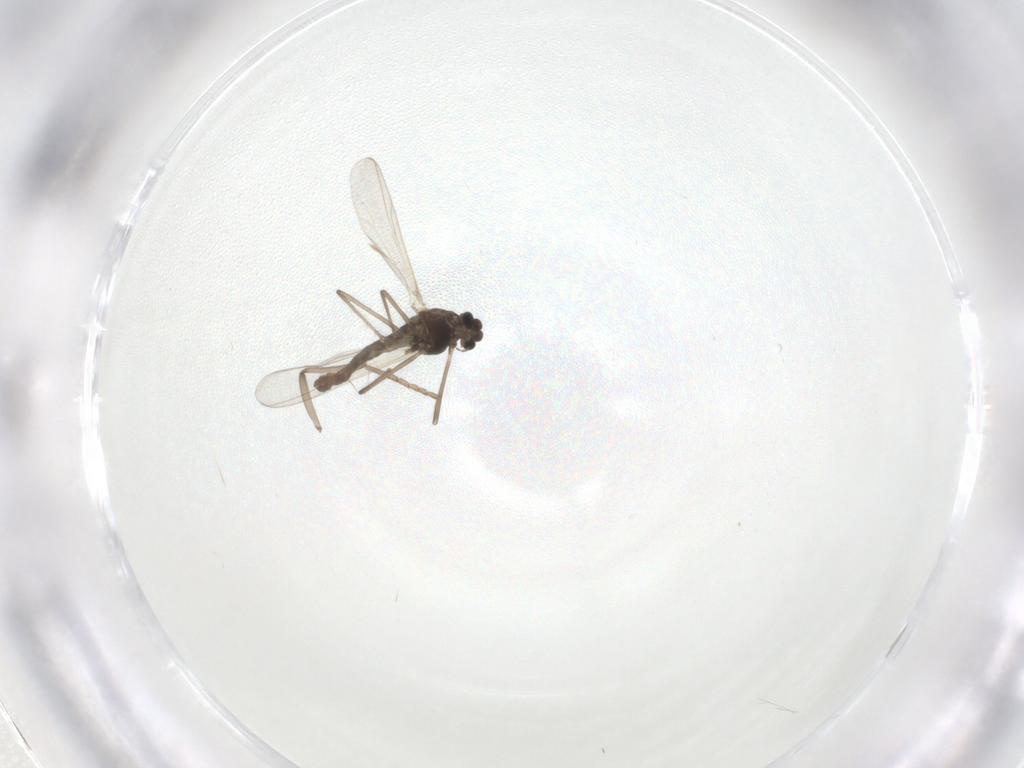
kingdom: Animalia
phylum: Arthropoda
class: Insecta
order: Diptera
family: Chironomidae
